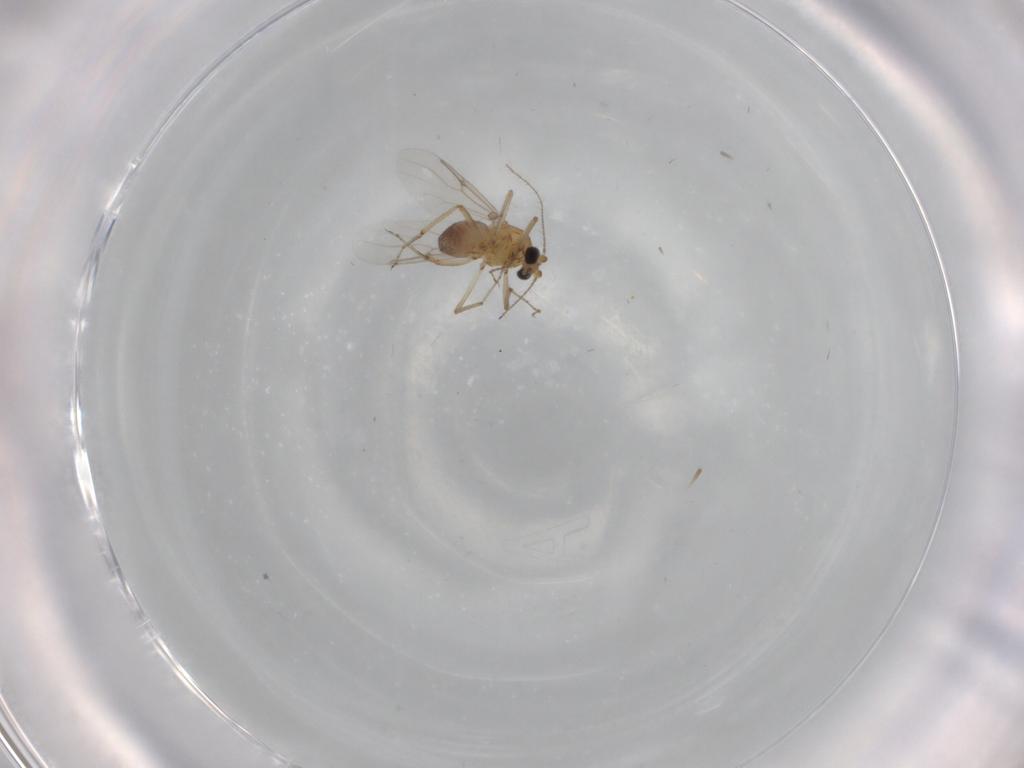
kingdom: Animalia
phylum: Arthropoda
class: Insecta
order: Diptera
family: Ceratopogonidae
